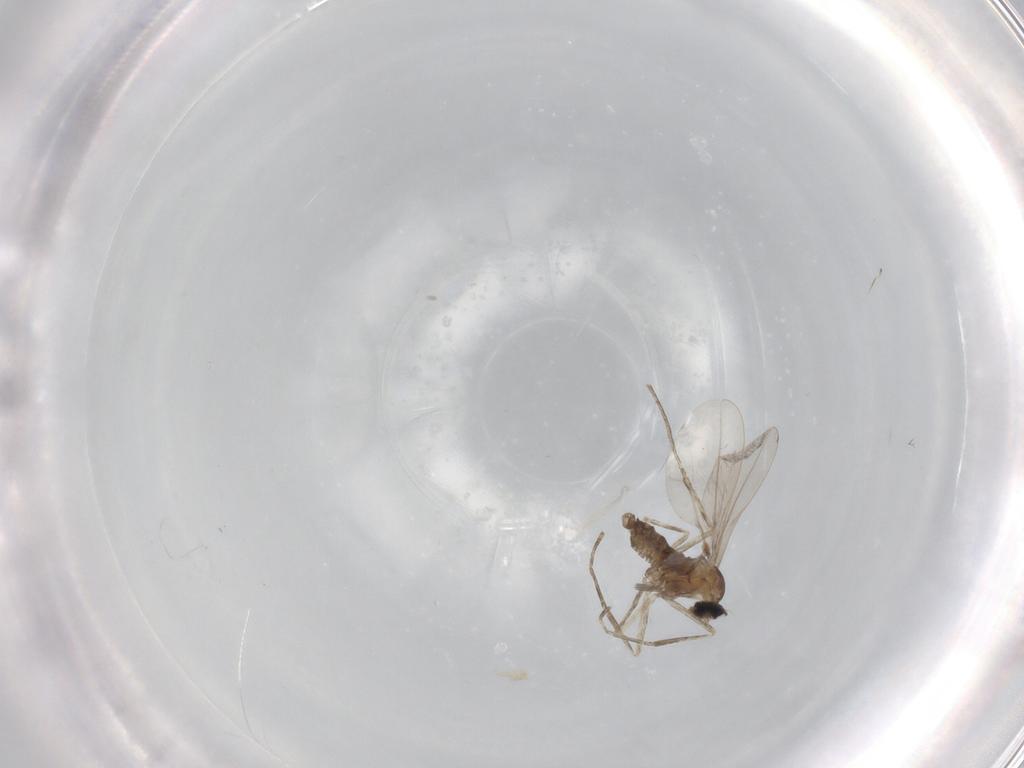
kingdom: Animalia
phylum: Arthropoda
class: Insecta
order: Diptera
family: Cecidomyiidae
